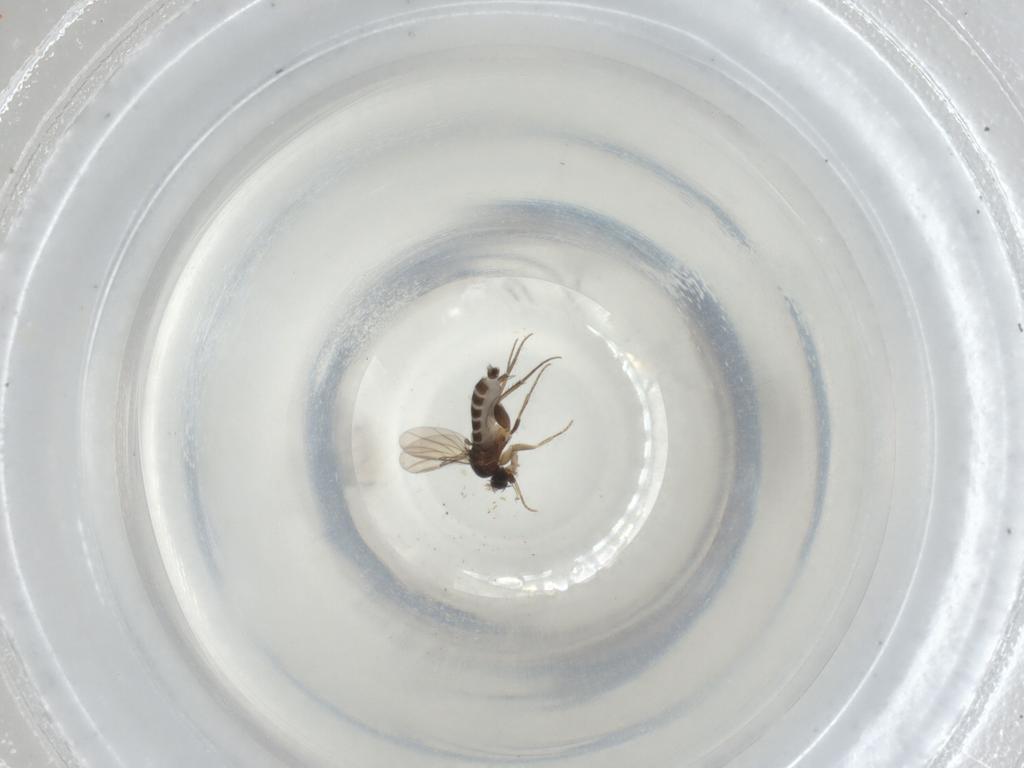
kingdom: Animalia
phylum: Arthropoda
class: Insecta
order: Diptera
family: Phoridae
